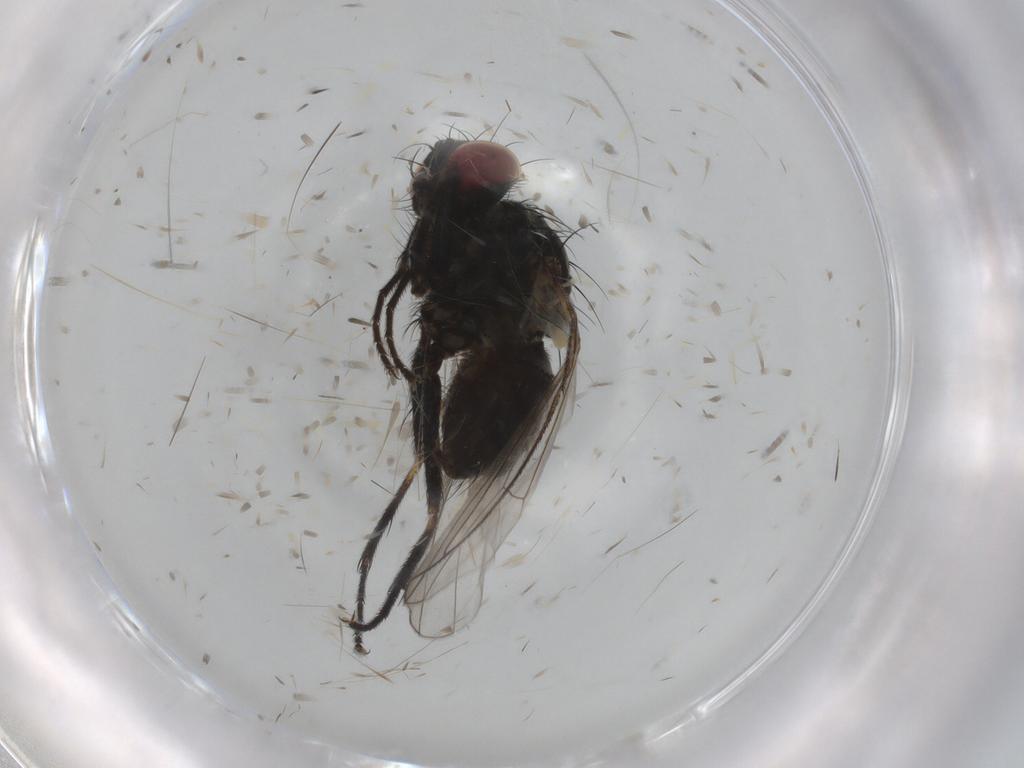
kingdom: Animalia
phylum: Arthropoda
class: Insecta
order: Diptera
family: Muscidae
